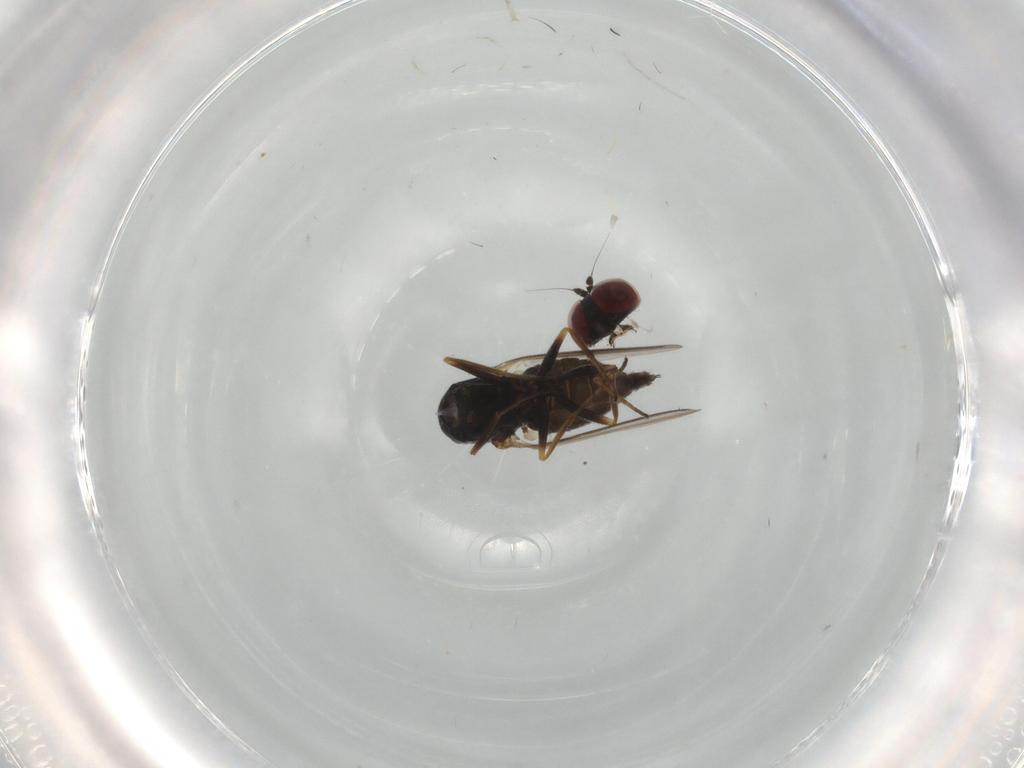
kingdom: Animalia
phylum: Arthropoda
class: Insecta
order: Diptera
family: Dolichopodidae
